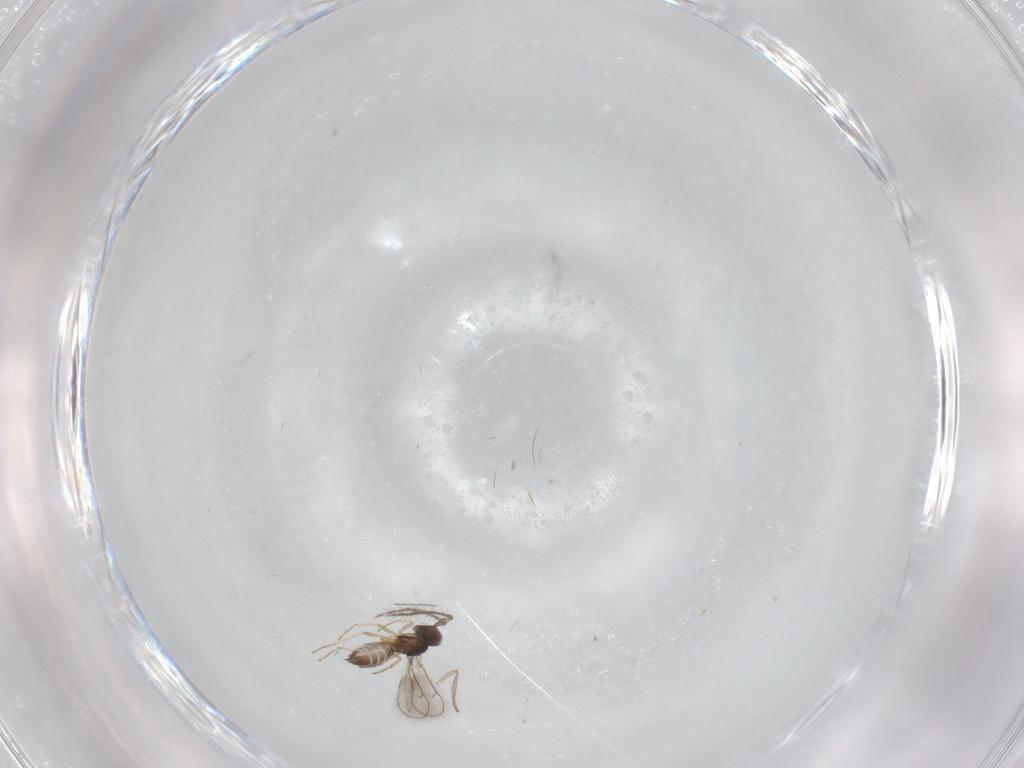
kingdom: Animalia
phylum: Arthropoda
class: Insecta
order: Hymenoptera
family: Eulophidae
